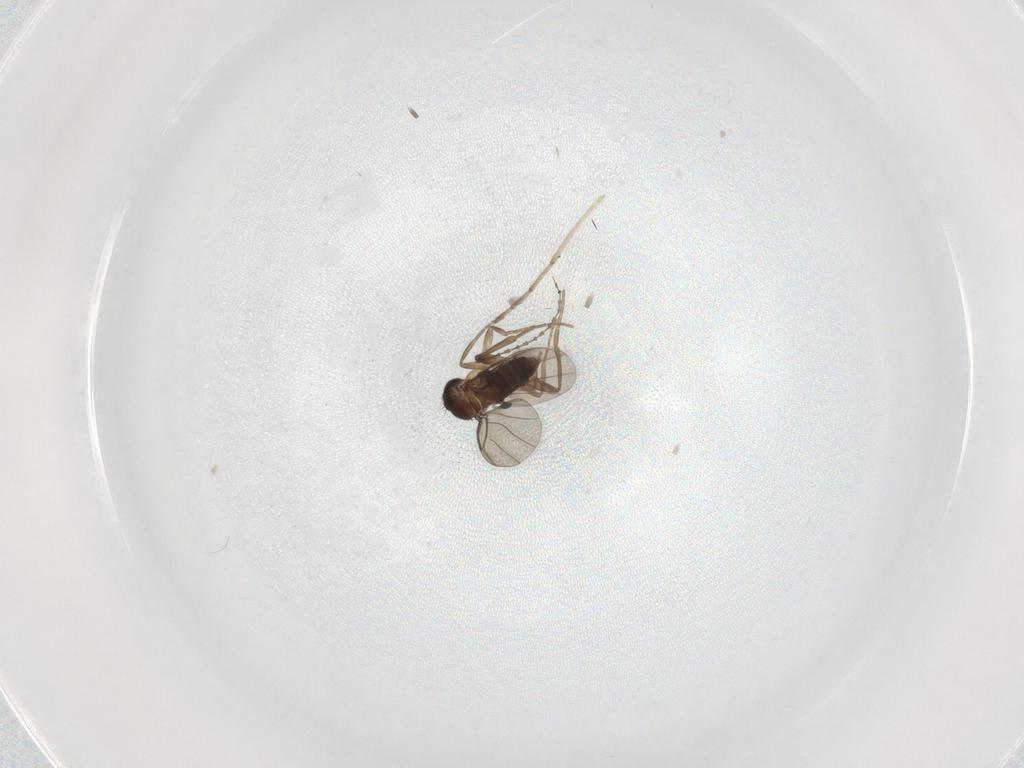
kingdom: Animalia
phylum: Arthropoda
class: Insecta
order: Diptera
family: Phoridae
